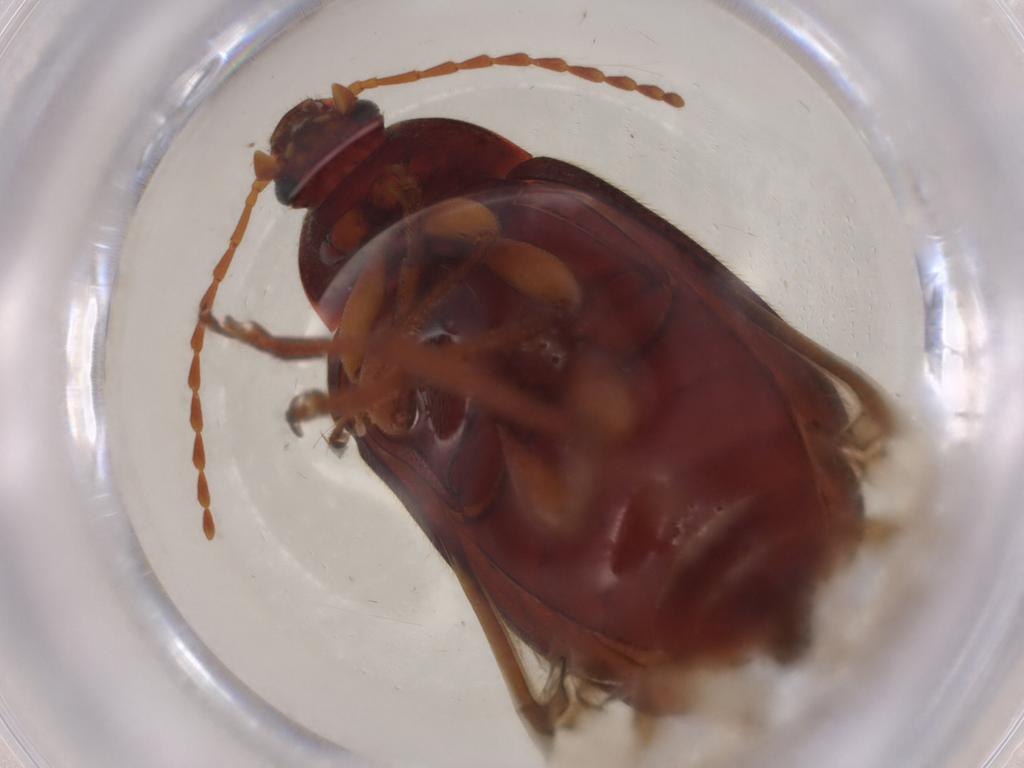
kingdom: Animalia
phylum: Arthropoda
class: Insecta
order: Coleoptera
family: Tenebrionidae
